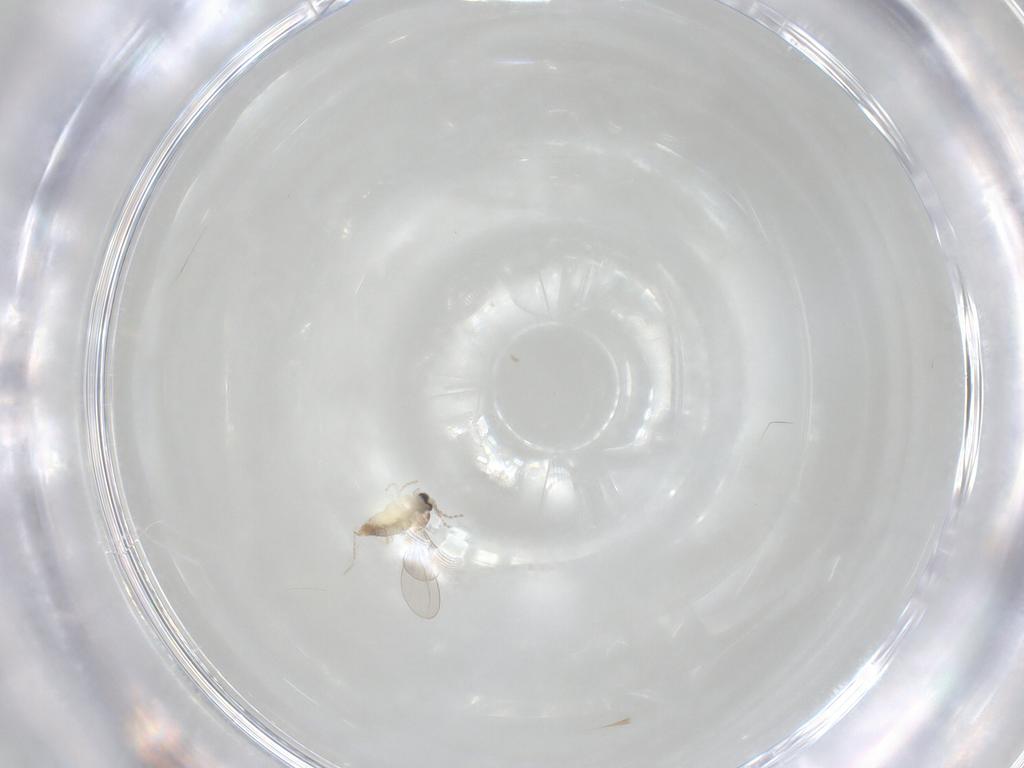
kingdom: Animalia
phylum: Arthropoda
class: Insecta
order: Diptera
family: Cecidomyiidae
